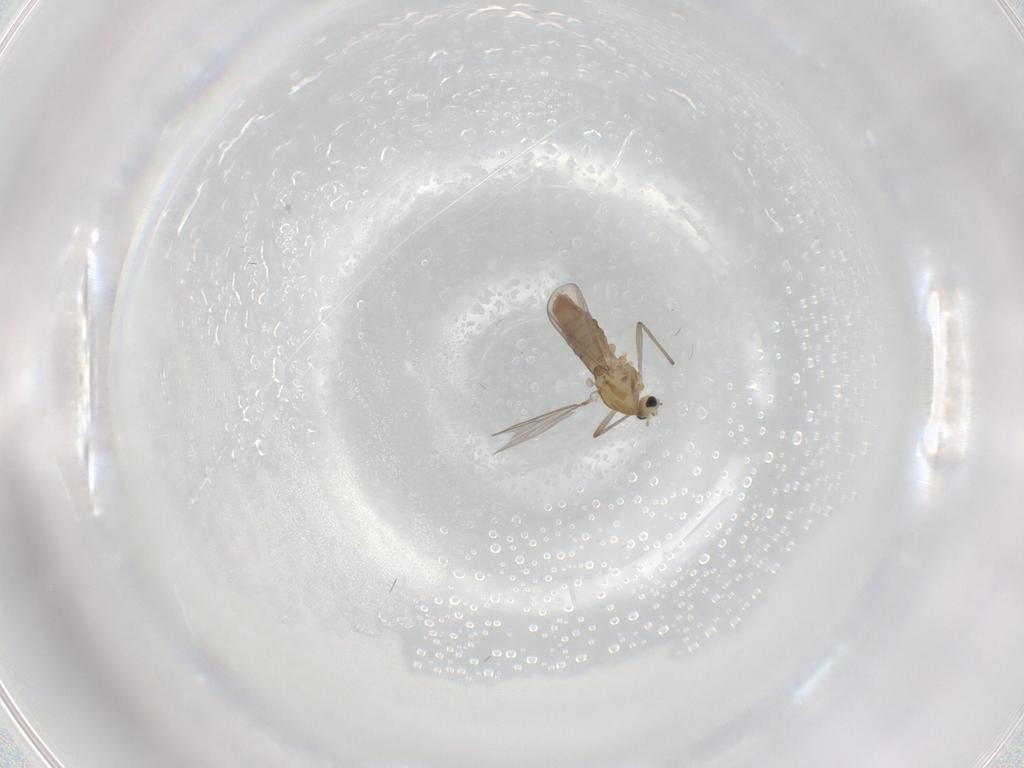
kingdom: Animalia
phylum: Arthropoda
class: Insecta
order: Diptera
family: Chironomidae
